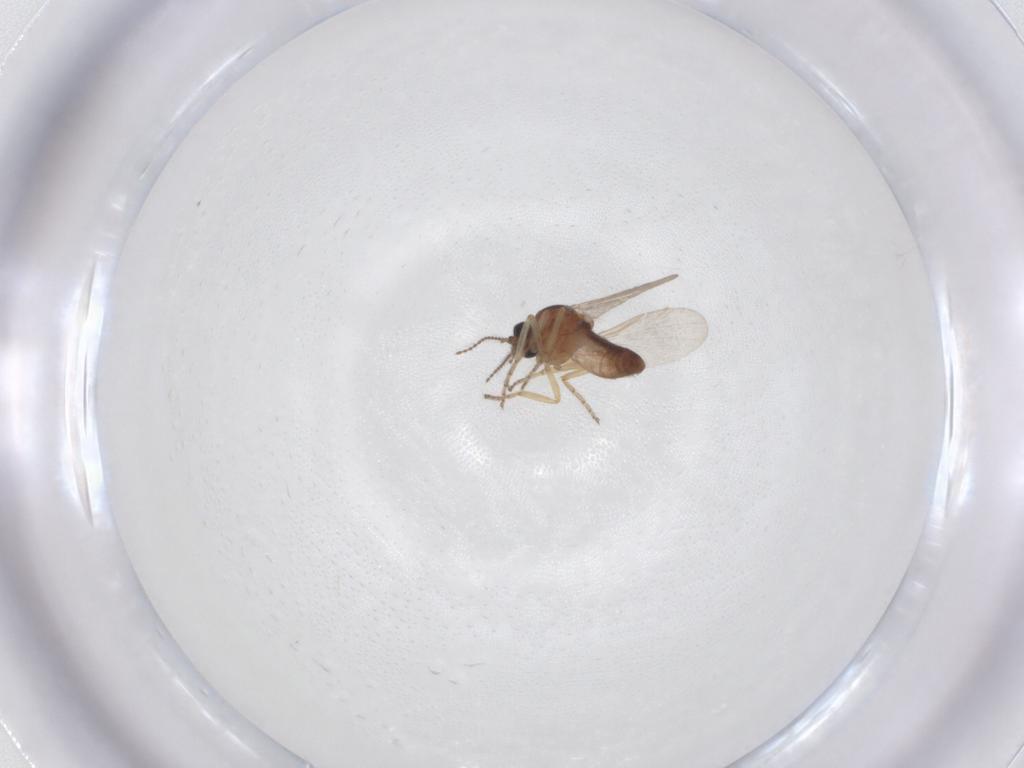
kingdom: Animalia
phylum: Arthropoda
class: Insecta
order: Diptera
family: Ceratopogonidae
